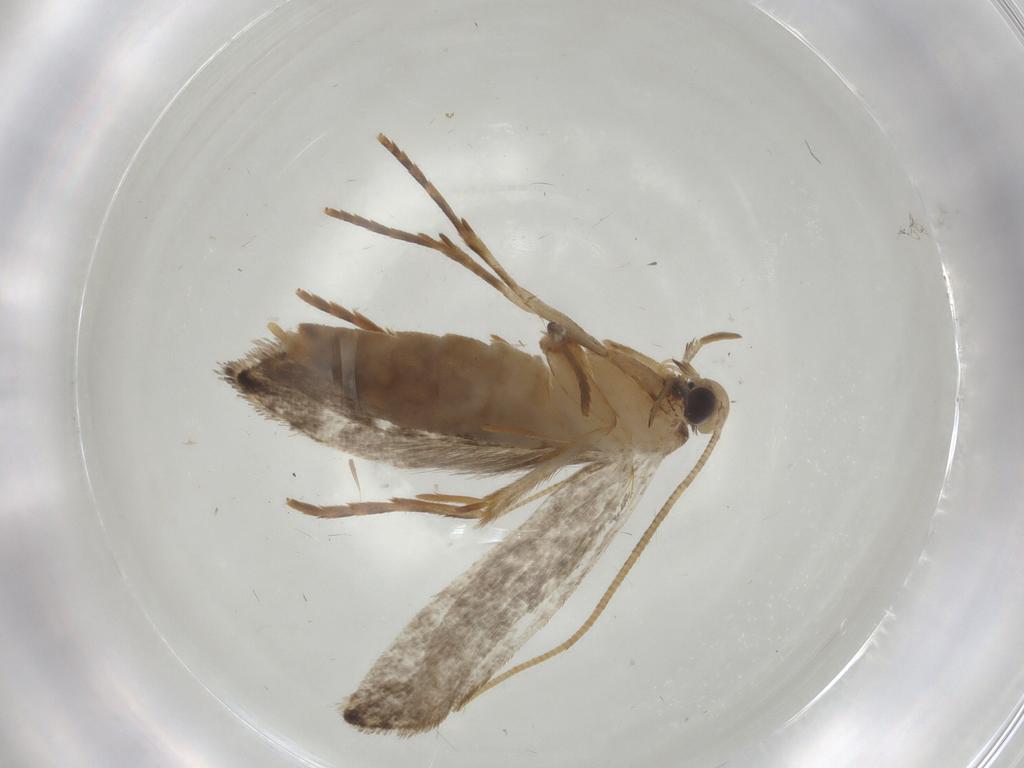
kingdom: Animalia
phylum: Arthropoda
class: Insecta
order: Lepidoptera
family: Tineidae
